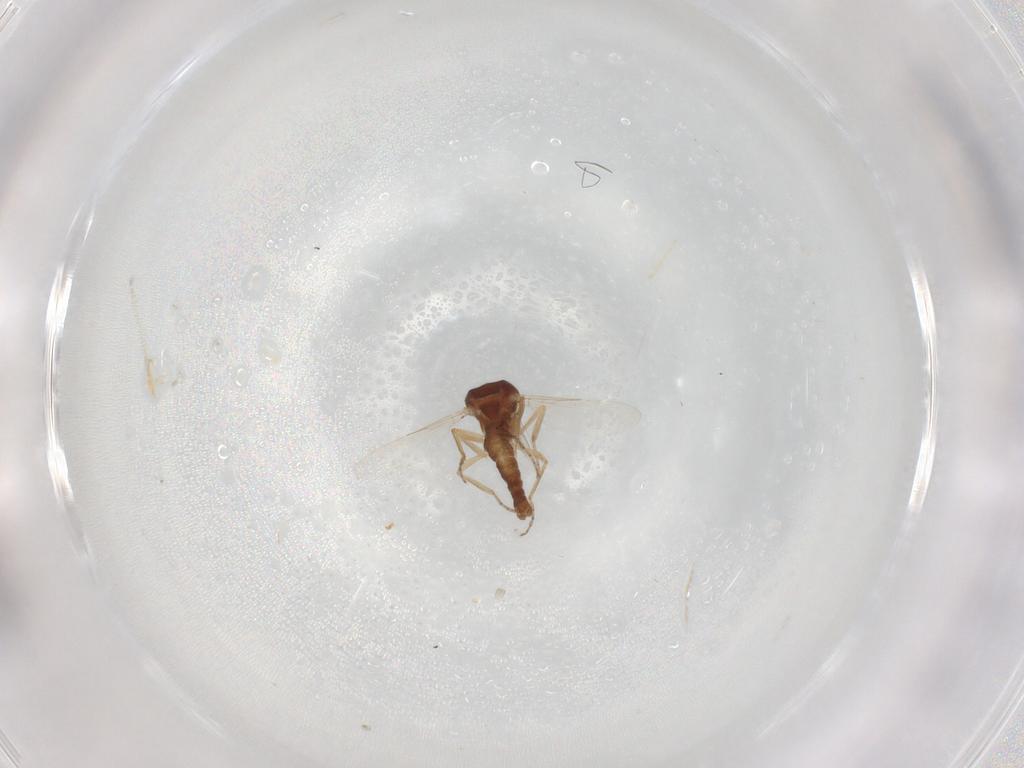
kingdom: Animalia
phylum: Arthropoda
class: Insecta
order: Diptera
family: Ceratopogonidae
